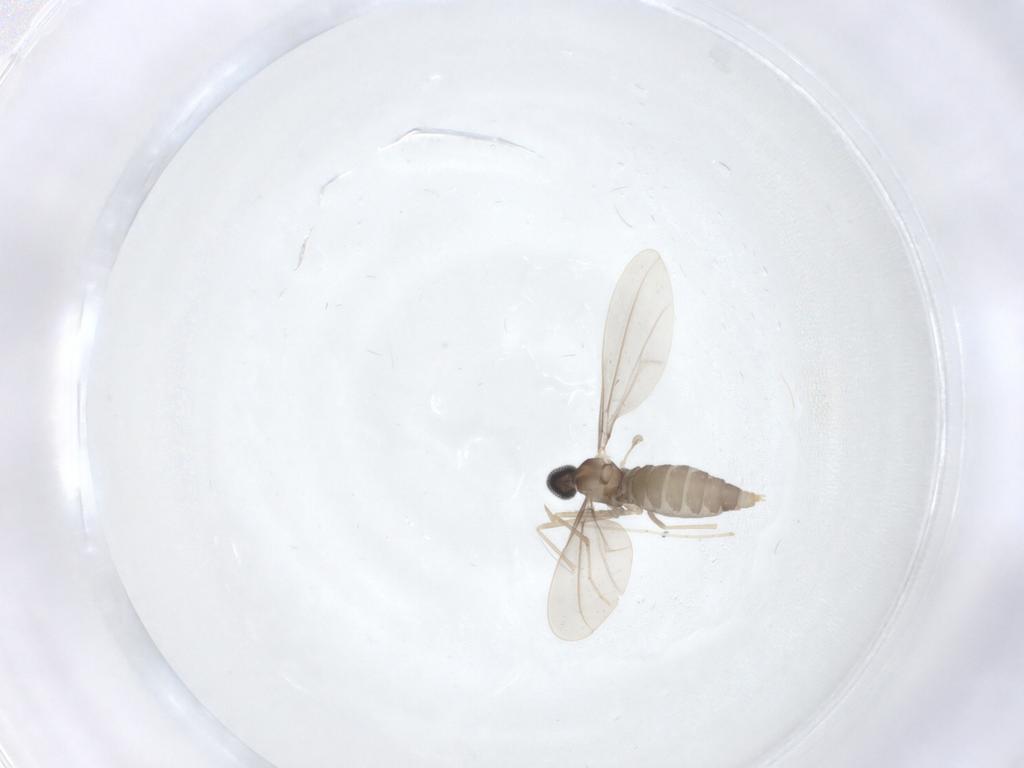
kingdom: Animalia
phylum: Arthropoda
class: Insecta
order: Diptera
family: Cecidomyiidae
